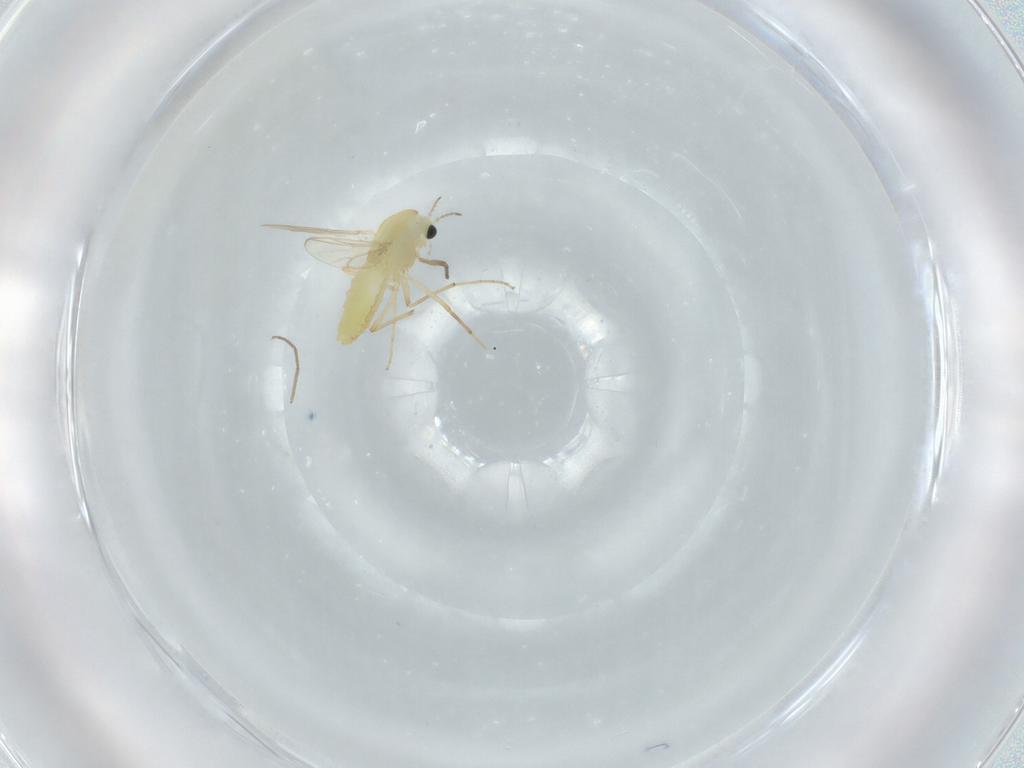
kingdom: Animalia
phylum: Arthropoda
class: Insecta
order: Diptera
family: Chironomidae
